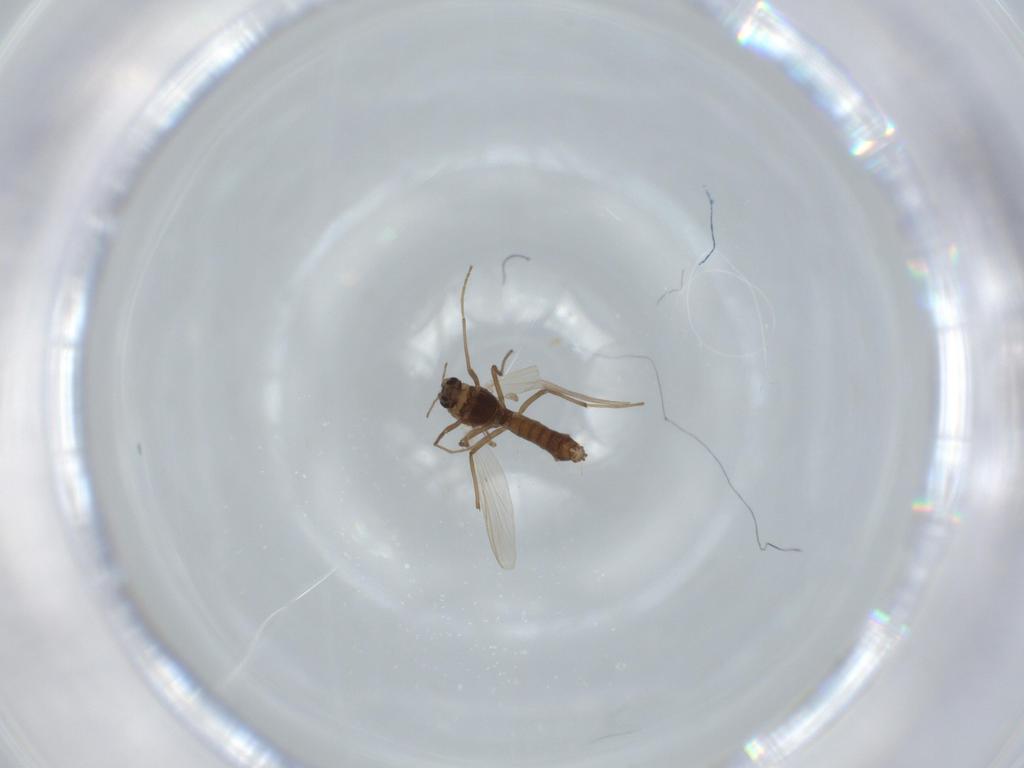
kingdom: Animalia
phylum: Arthropoda
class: Insecta
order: Diptera
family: Chironomidae
